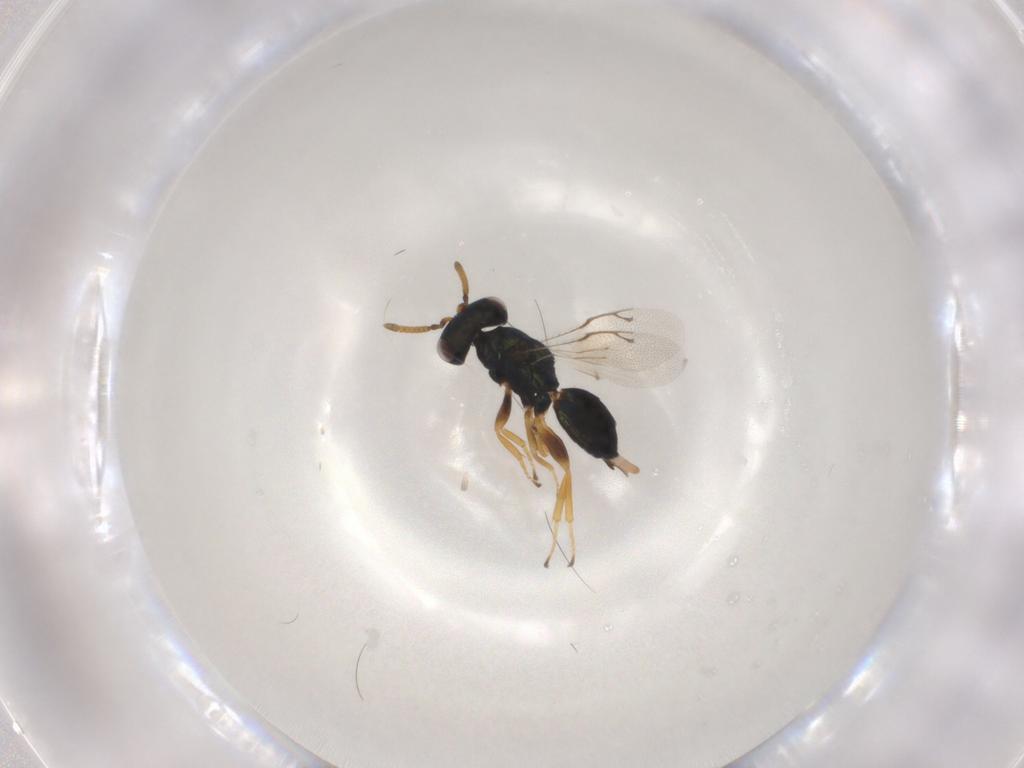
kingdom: Animalia
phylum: Arthropoda
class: Insecta
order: Hymenoptera
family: Pteromalidae
